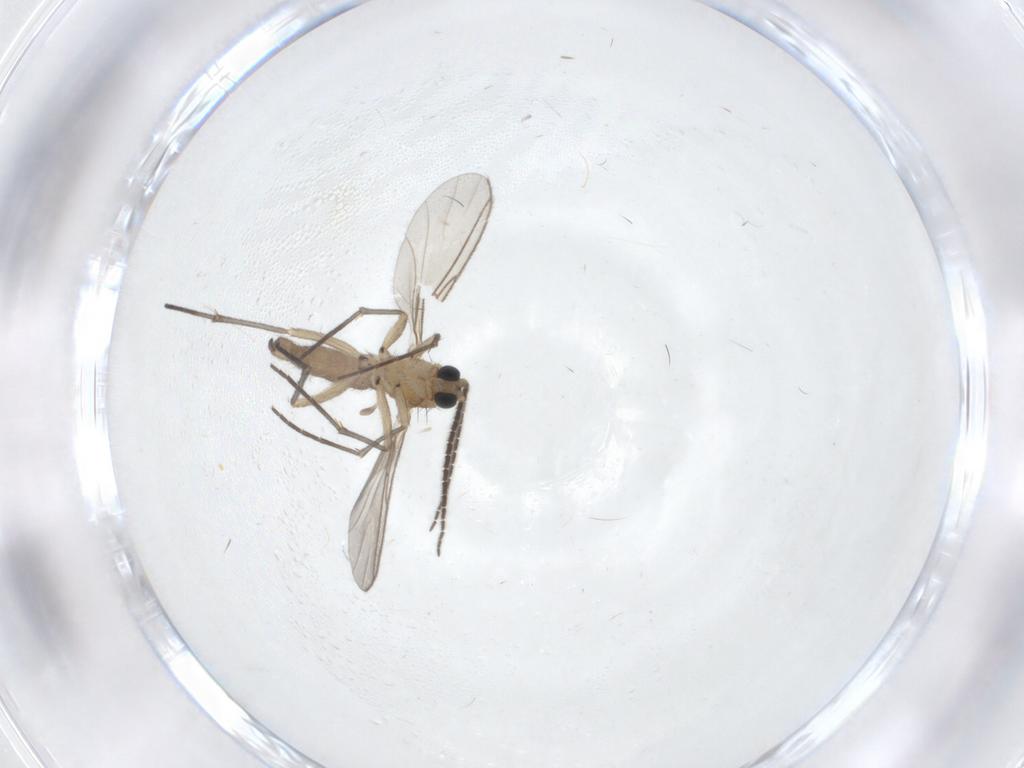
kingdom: Animalia
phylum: Arthropoda
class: Insecta
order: Diptera
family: Sciaridae
